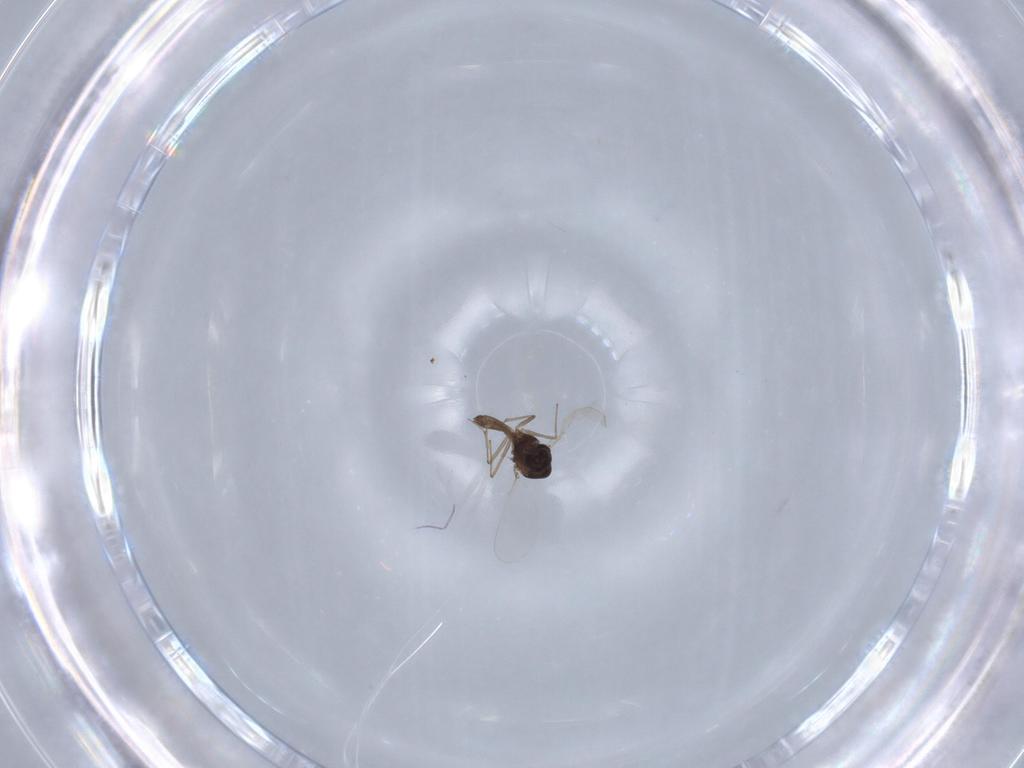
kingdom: Animalia
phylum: Arthropoda
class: Insecta
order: Diptera
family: Chironomidae
